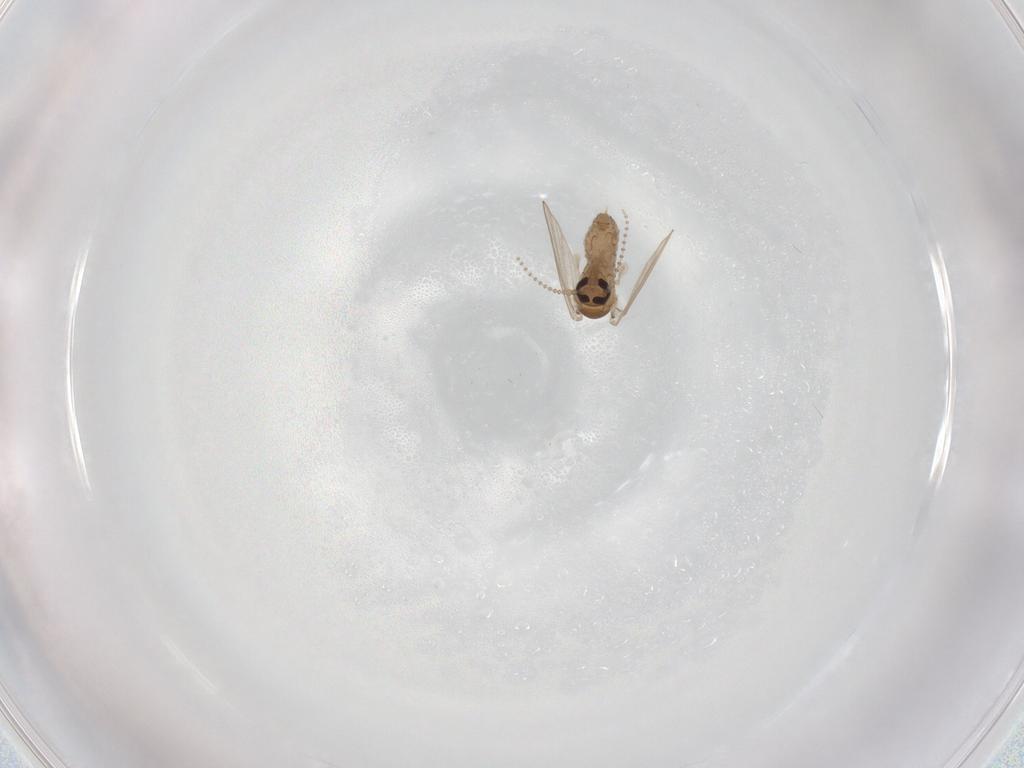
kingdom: Animalia
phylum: Arthropoda
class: Insecta
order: Diptera
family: Psychodidae
